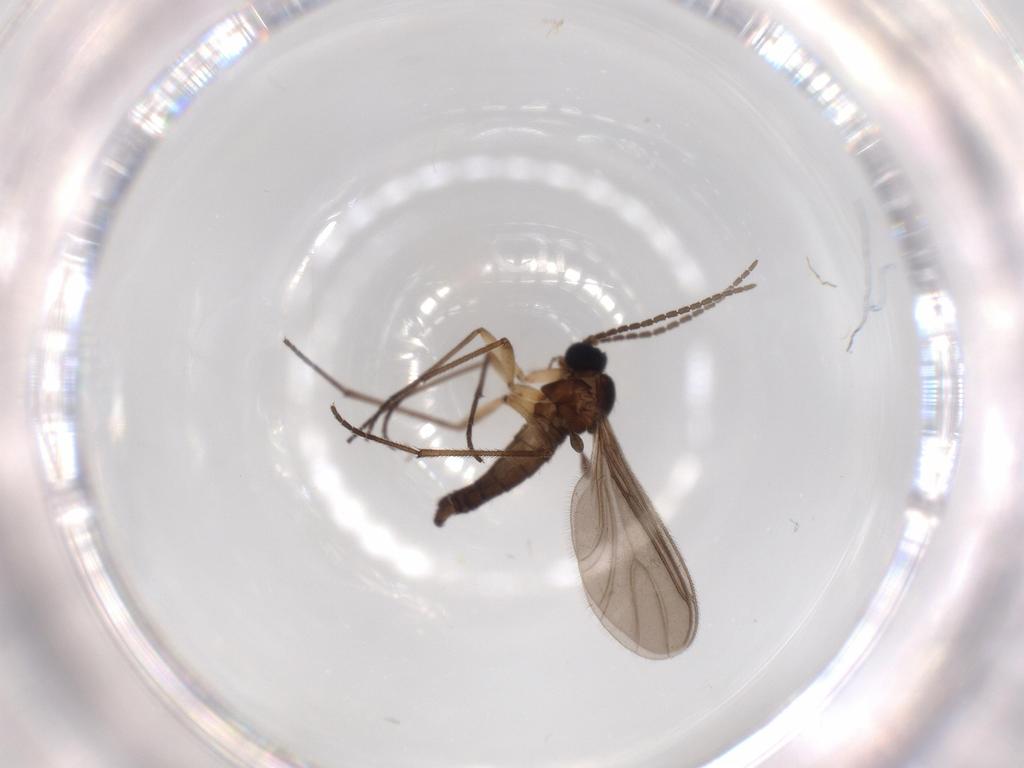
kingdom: Animalia
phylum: Arthropoda
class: Insecta
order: Diptera
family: Sciaridae
